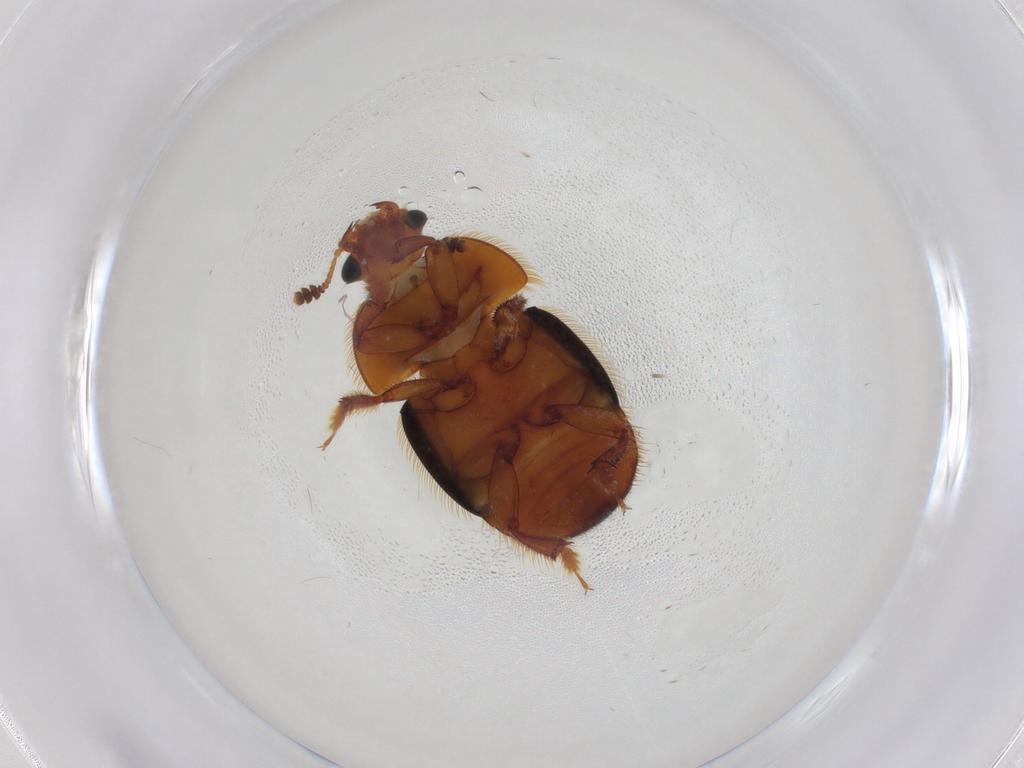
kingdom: Animalia
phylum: Arthropoda
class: Insecta
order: Coleoptera
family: Nitidulidae
